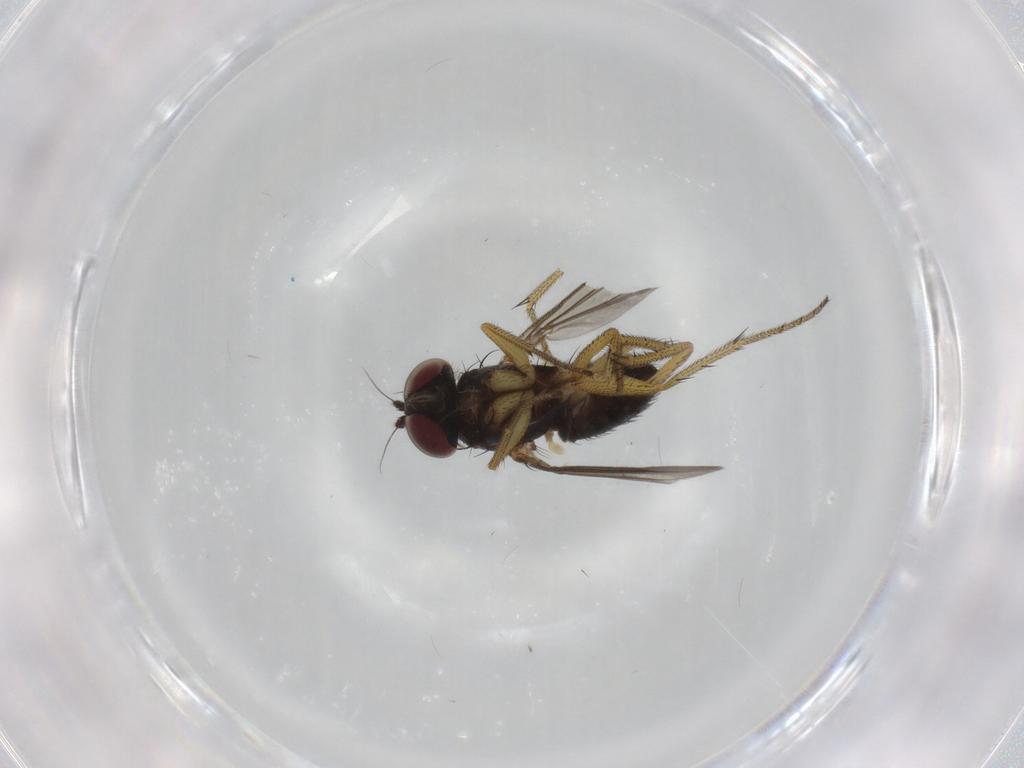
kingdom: Animalia
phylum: Arthropoda
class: Insecta
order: Diptera
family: Dolichopodidae
